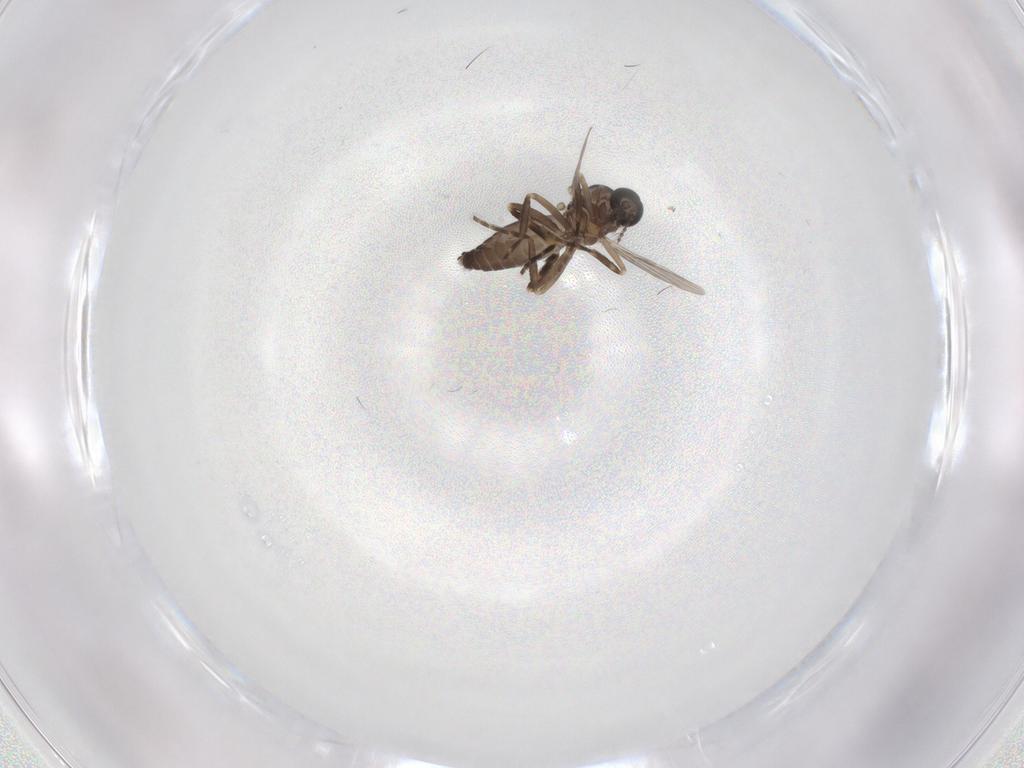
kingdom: Animalia
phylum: Arthropoda
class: Insecta
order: Diptera
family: Ceratopogonidae
